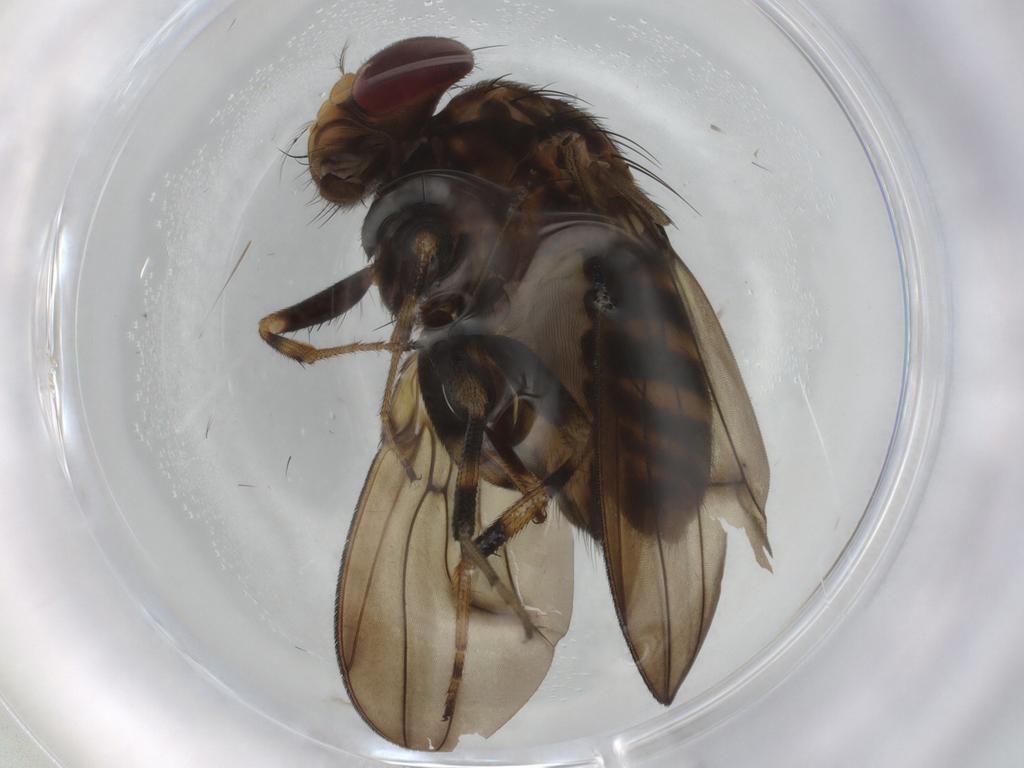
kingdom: Animalia
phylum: Arthropoda
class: Insecta
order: Diptera
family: Drosophilidae
